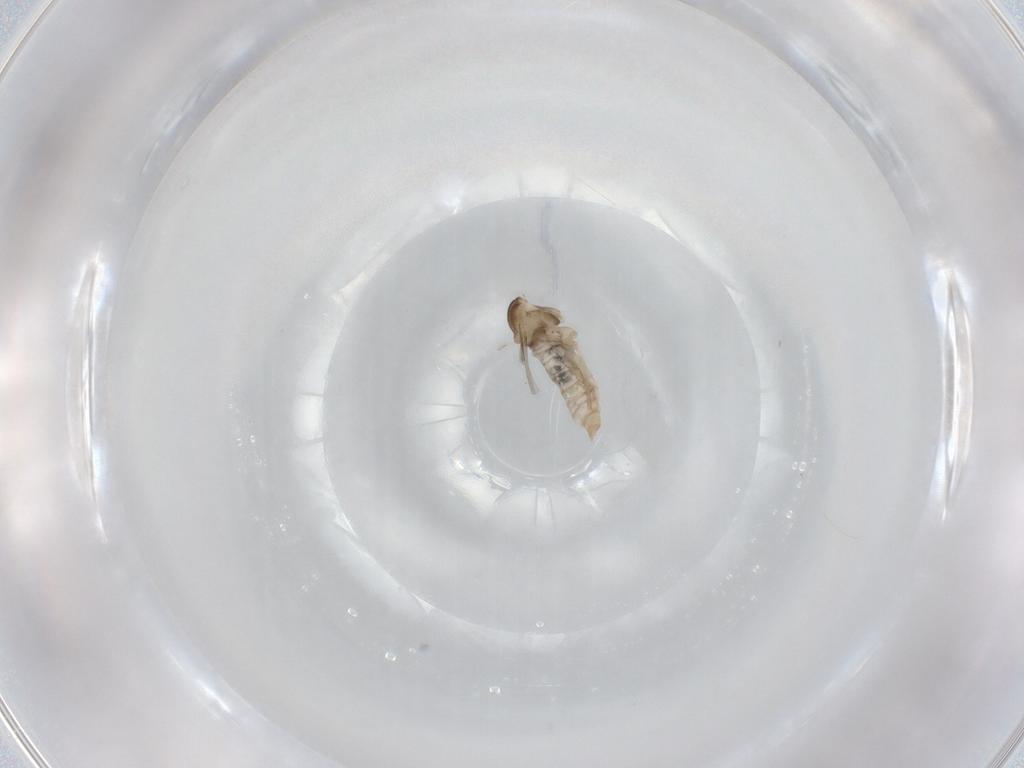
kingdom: Animalia
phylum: Arthropoda
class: Insecta
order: Diptera
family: Cecidomyiidae
